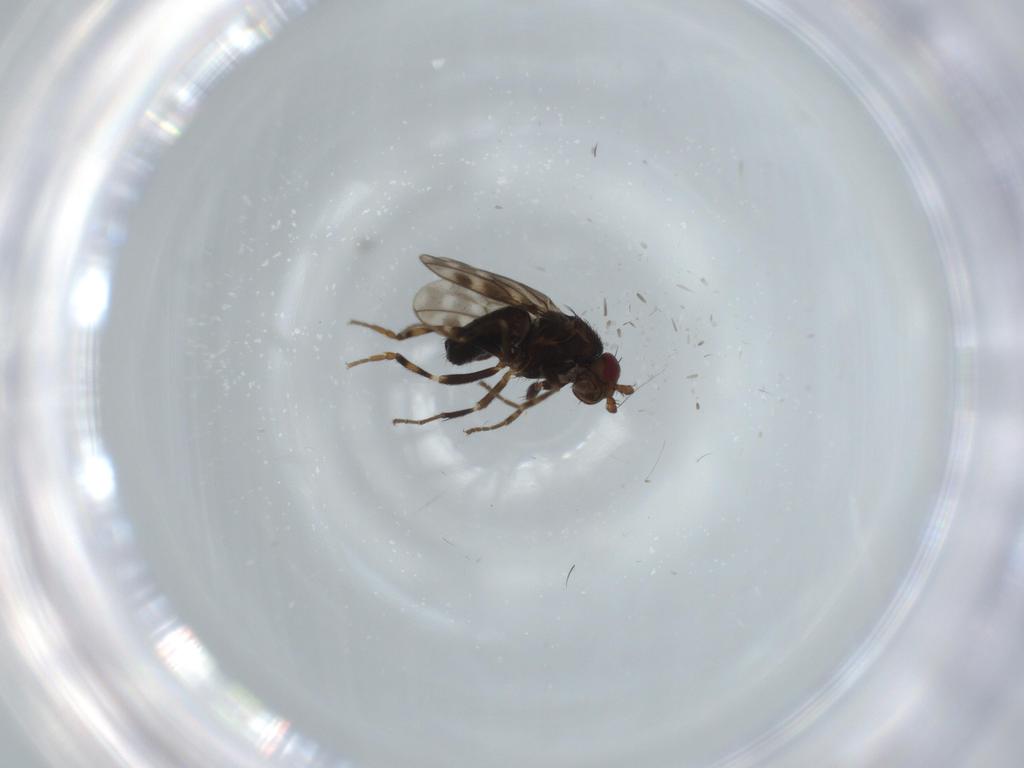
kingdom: Animalia
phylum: Arthropoda
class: Insecta
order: Diptera
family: Sphaeroceridae
